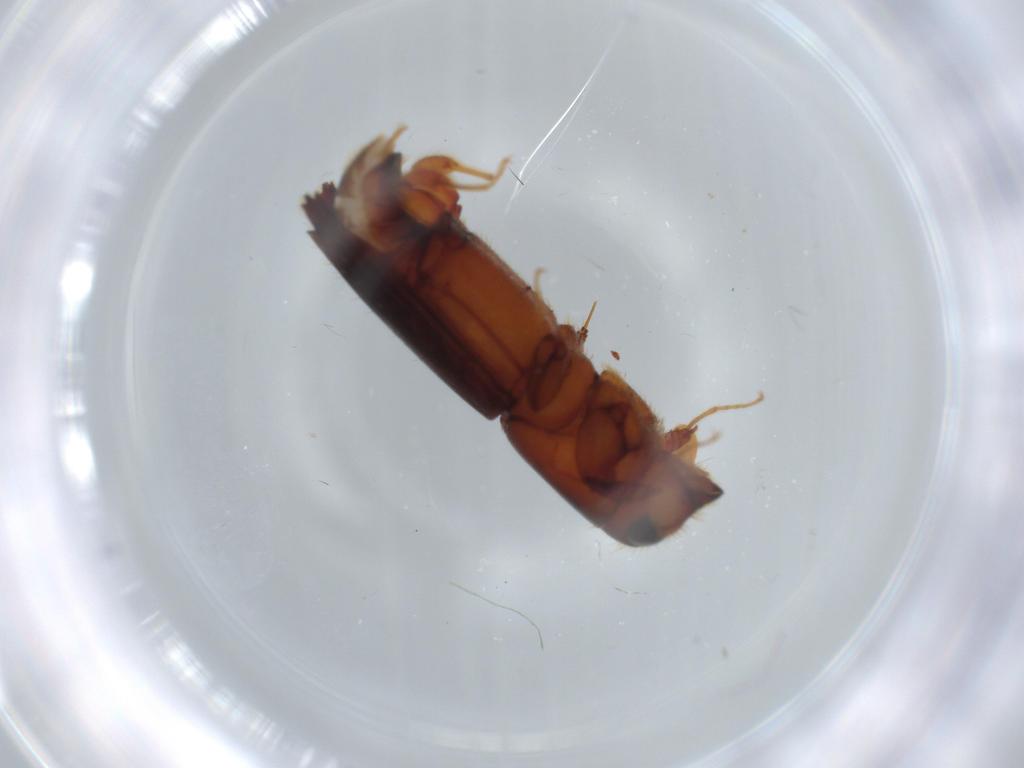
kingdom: Animalia
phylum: Arthropoda
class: Insecta
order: Coleoptera
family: Curculionidae
